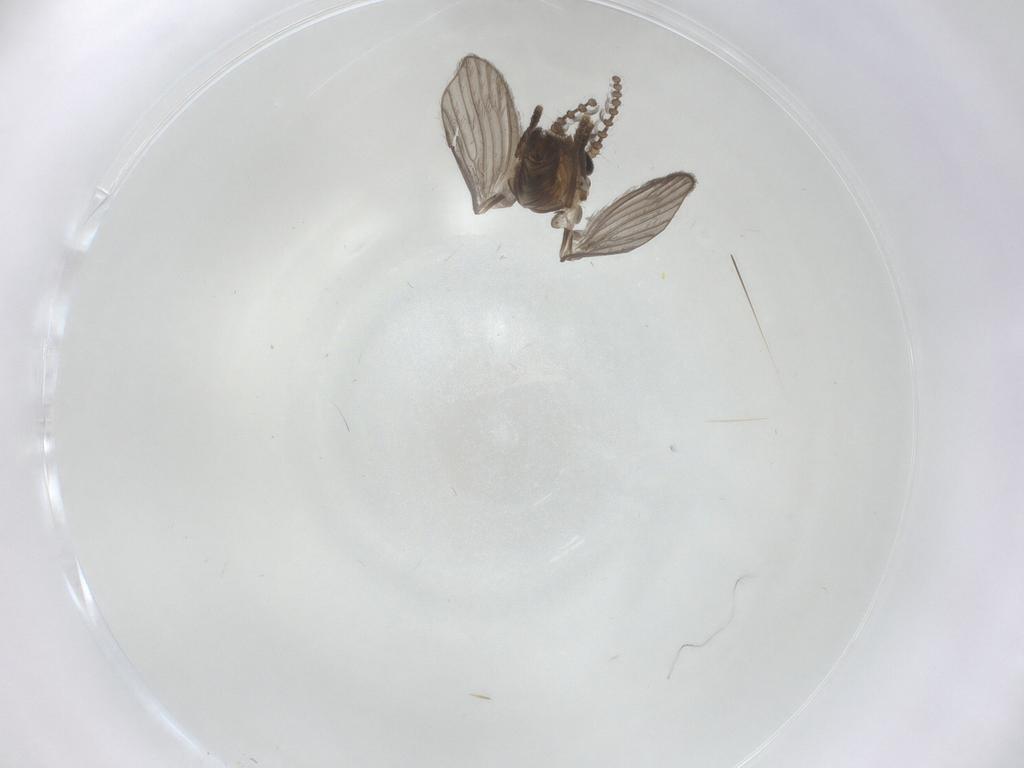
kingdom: Animalia
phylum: Arthropoda
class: Insecta
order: Diptera
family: Psychodidae
